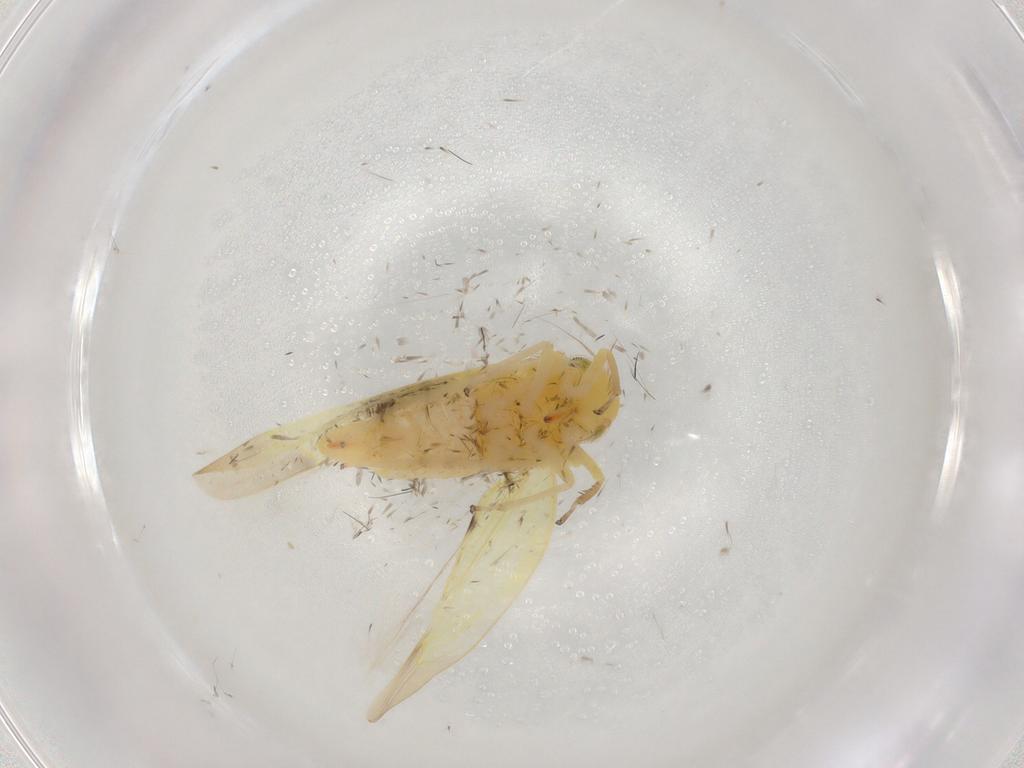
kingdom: Animalia
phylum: Arthropoda
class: Insecta
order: Hemiptera
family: Cicadellidae
